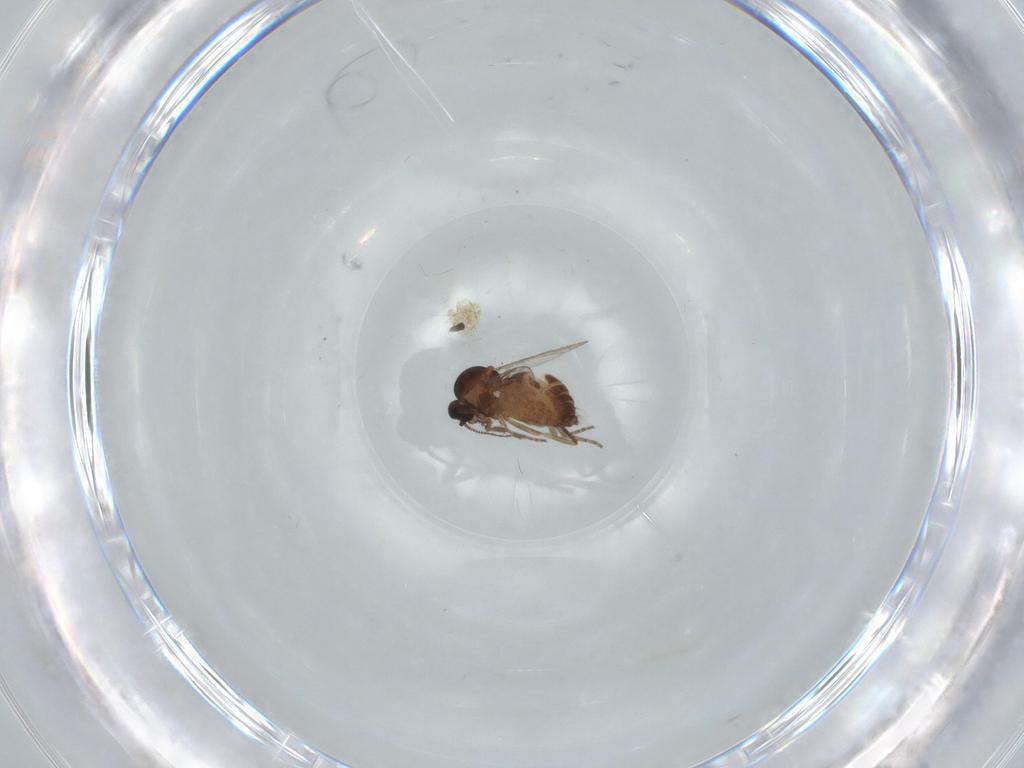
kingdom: Animalia
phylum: Arthropoda
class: Insecta
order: Diptera
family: Ceratopogonidae
